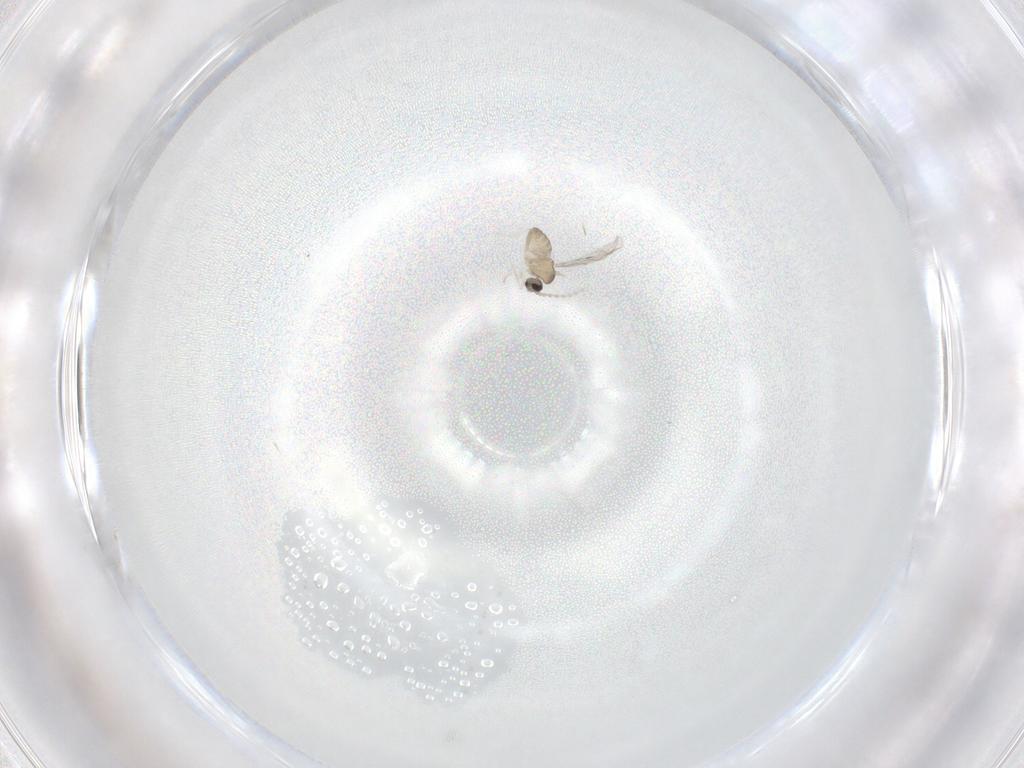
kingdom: Animalia
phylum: Arthropoda
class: Insecta
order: Diptera
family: Cecidomyiidae
